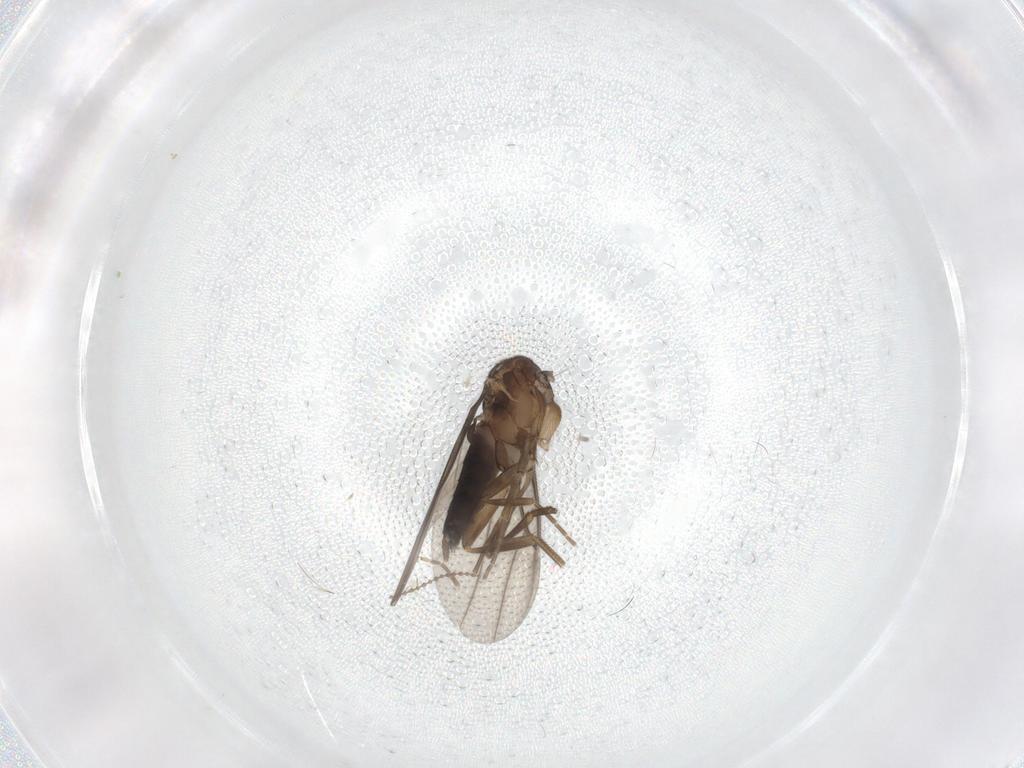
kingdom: Animalia
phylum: Arthropoda
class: Insecta
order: Diptera
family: Phoridae
